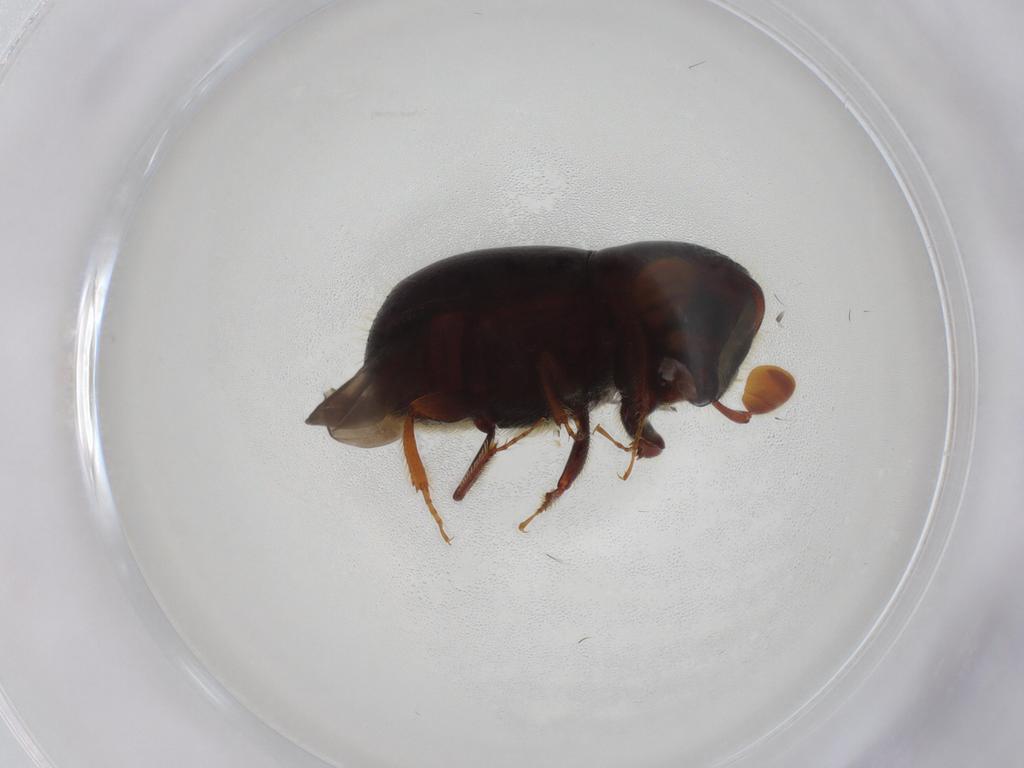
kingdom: Animalia
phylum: Arthropoda
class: Insecta
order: Coleoptera
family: Curculionidae
